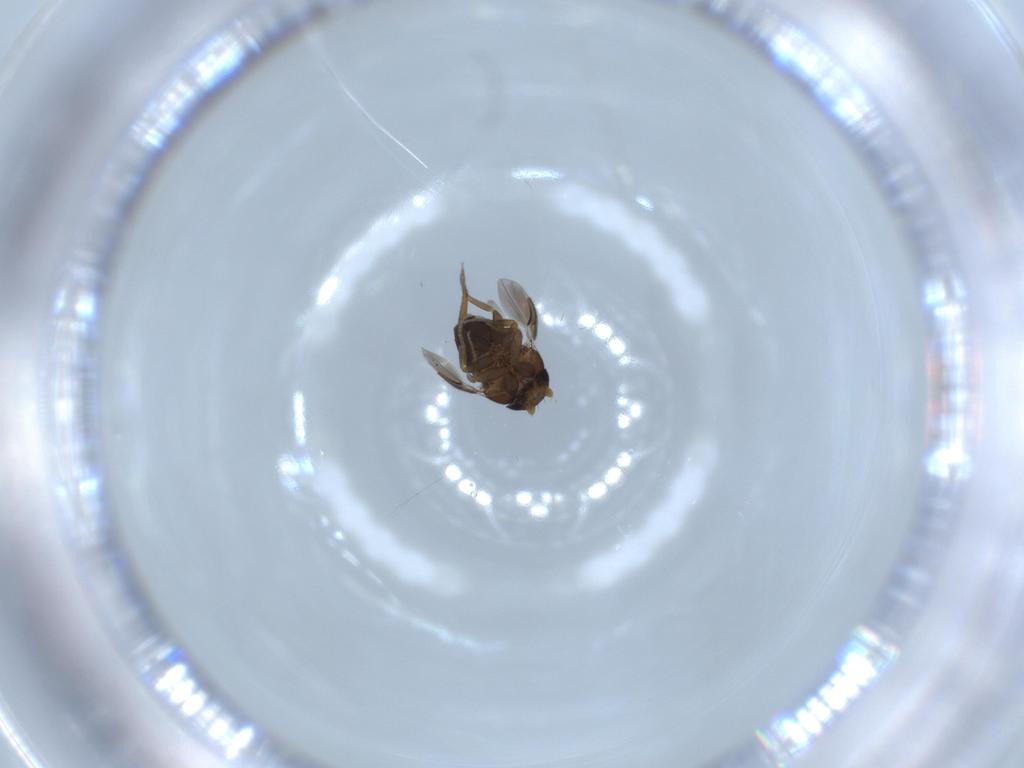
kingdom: Animalia
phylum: Arthropoda
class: Insecta
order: Diptera
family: Phoridae
